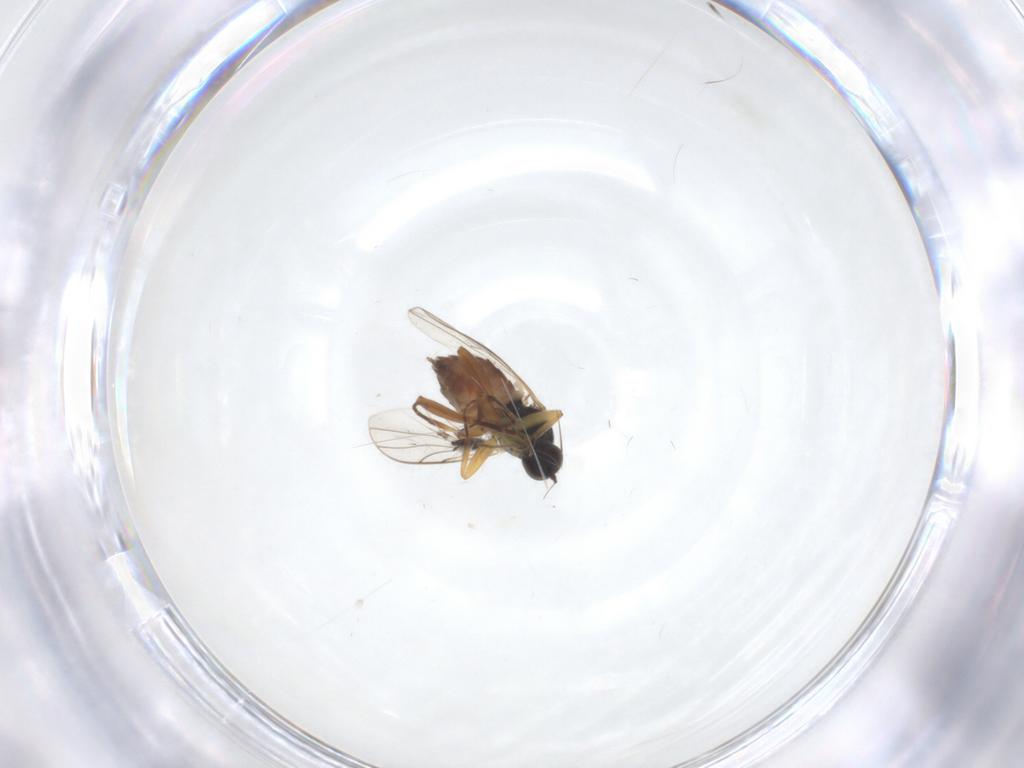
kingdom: Animalia
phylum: Arthropoda
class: Insecta
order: Diptera
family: Hybotidae
